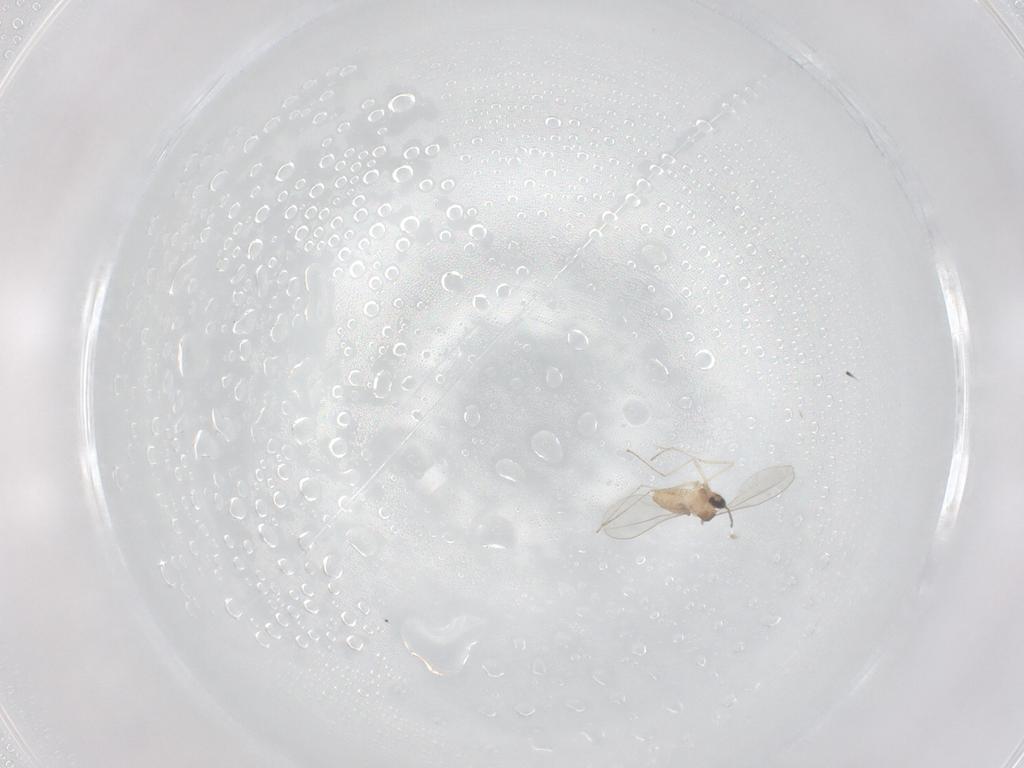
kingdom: Animalia
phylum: Arthropoda
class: Insecta
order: Diptera
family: Cecidomyiidae
